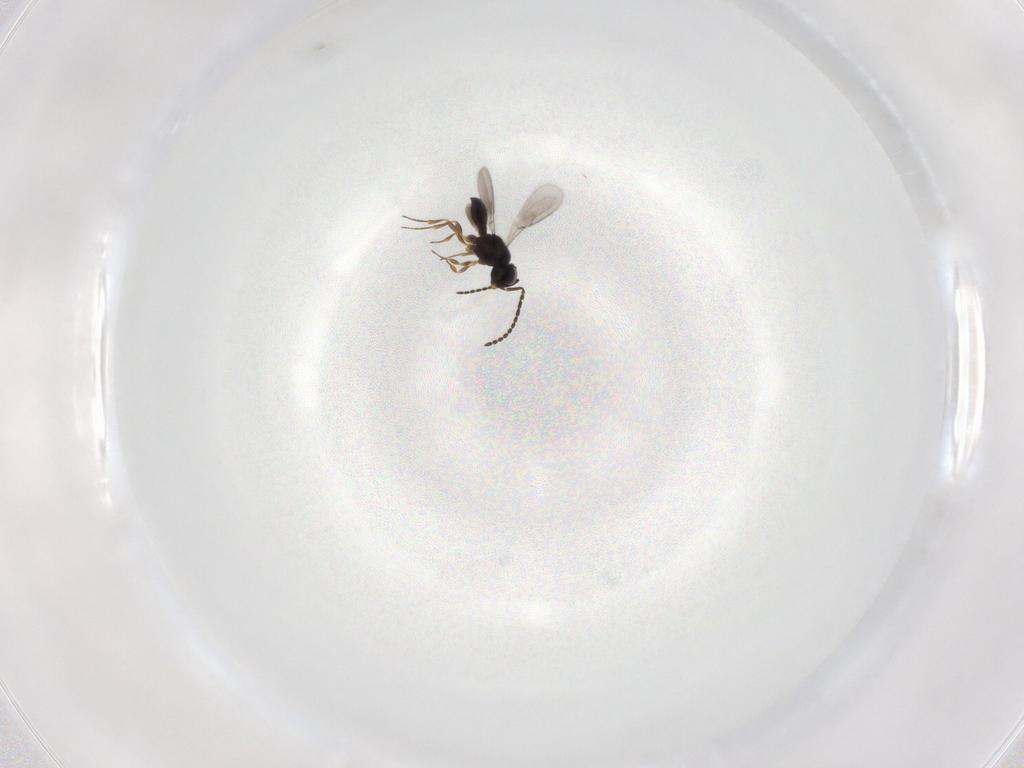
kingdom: Animalia
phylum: Arthropoda
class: Insecta
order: Hymenoptera
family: Scelionidae
